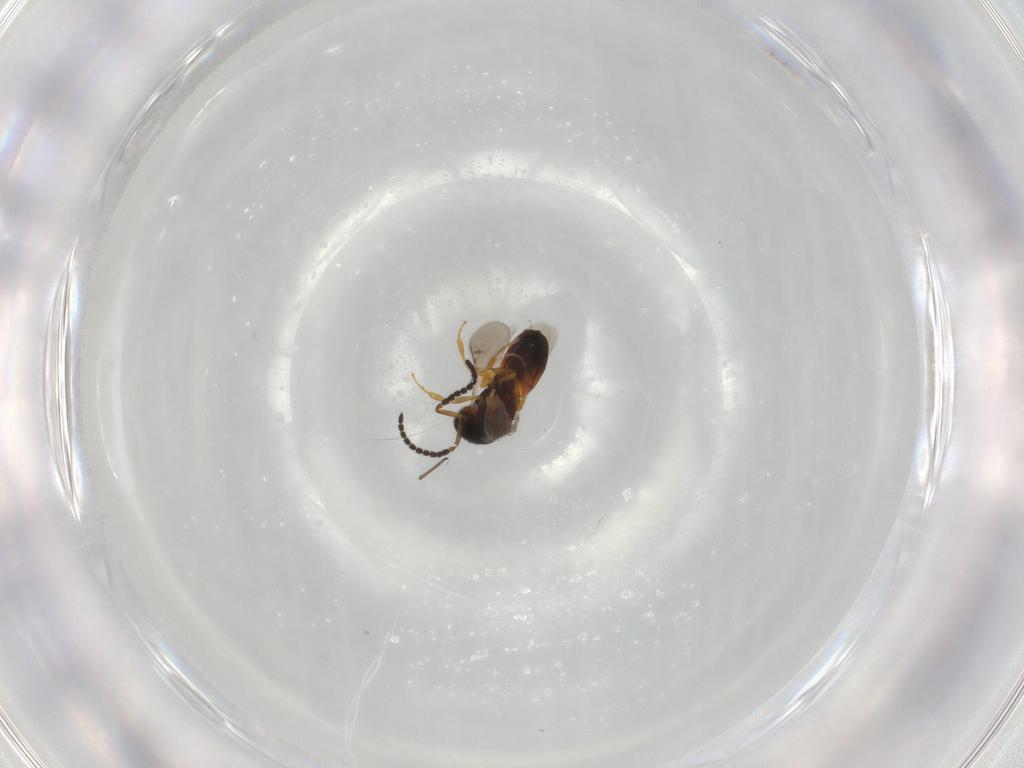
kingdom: Animalia
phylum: Arthropoda
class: Insecta
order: Hymenoptera
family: Scelionidae
